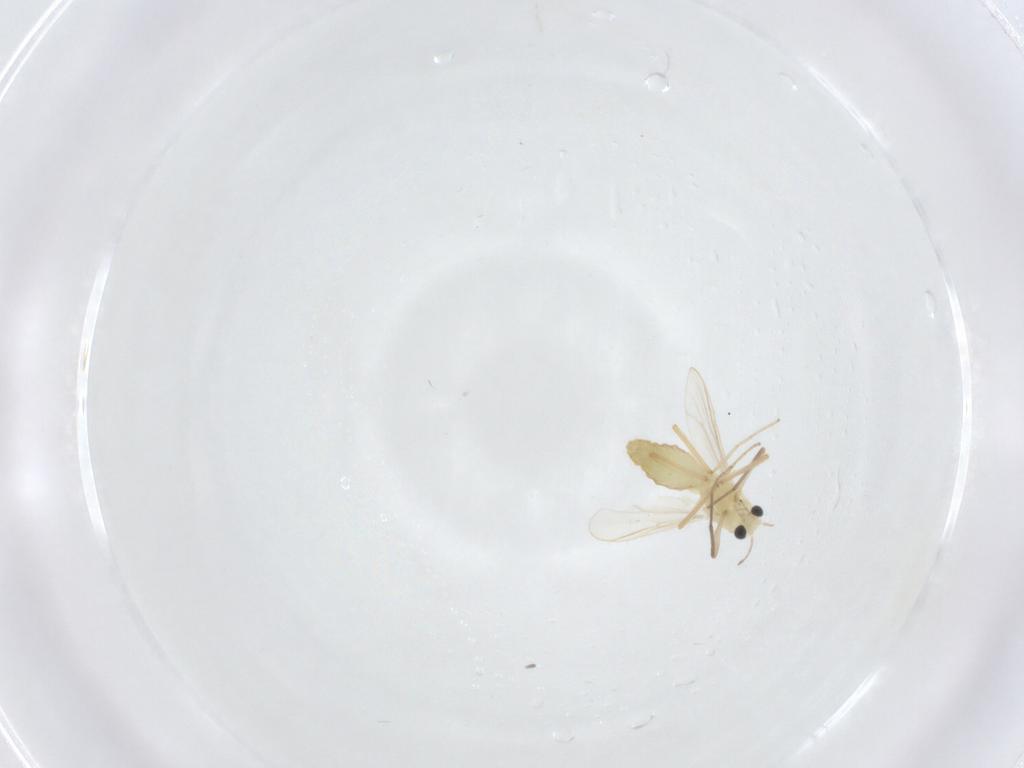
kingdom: Animalia
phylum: Arthropoda
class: Insecta
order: Diptera
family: Chironomidae
